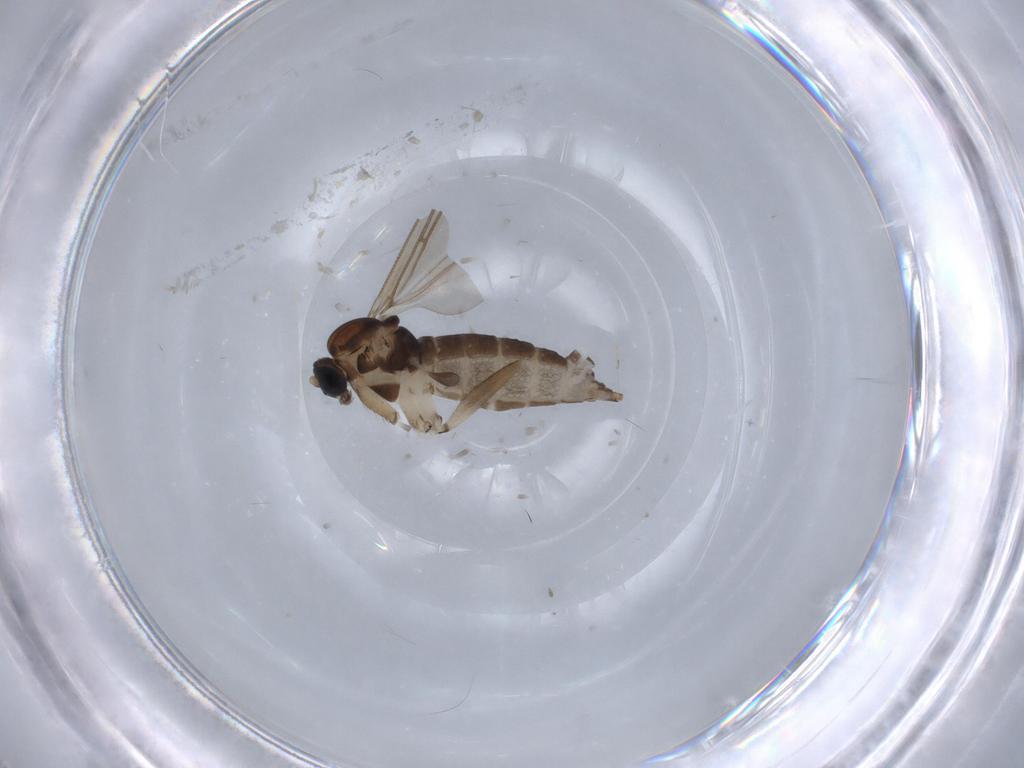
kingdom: Animalia
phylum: Arthropoda
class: Insecta
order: Diptera
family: Sciaridae
